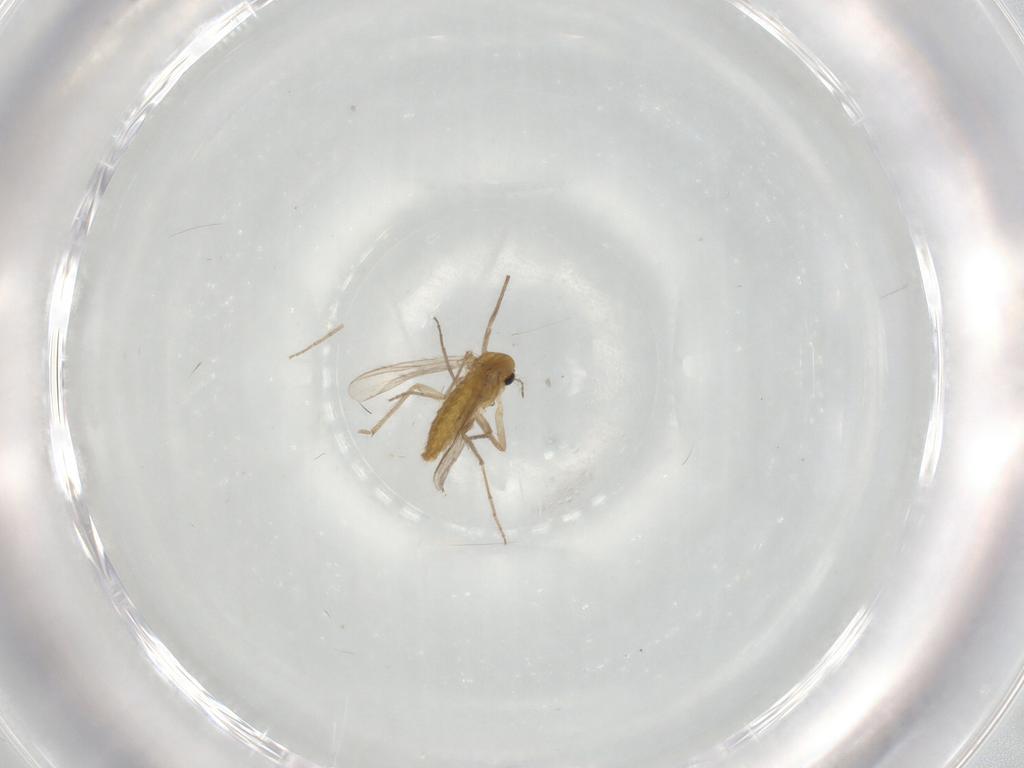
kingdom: Animalia
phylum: Arthropoda
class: Insecta
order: Diptera
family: Chironomidae
